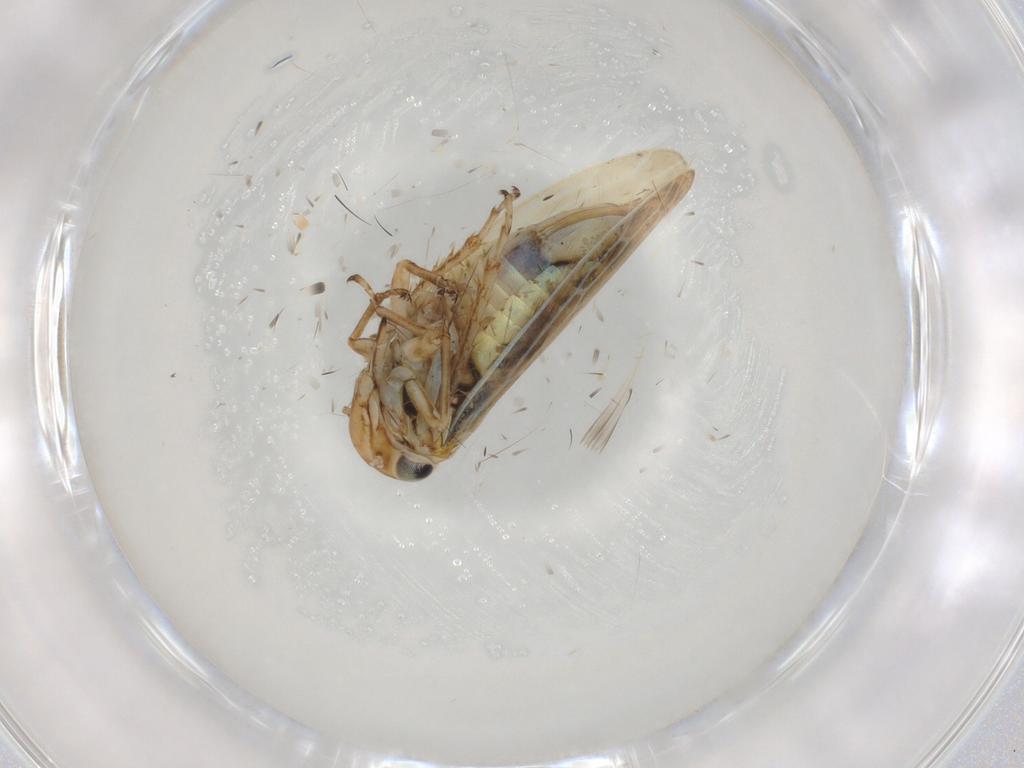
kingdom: Animalia
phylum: Arthropoda
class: Insecta
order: Hemiptera
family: Cicadellidae
